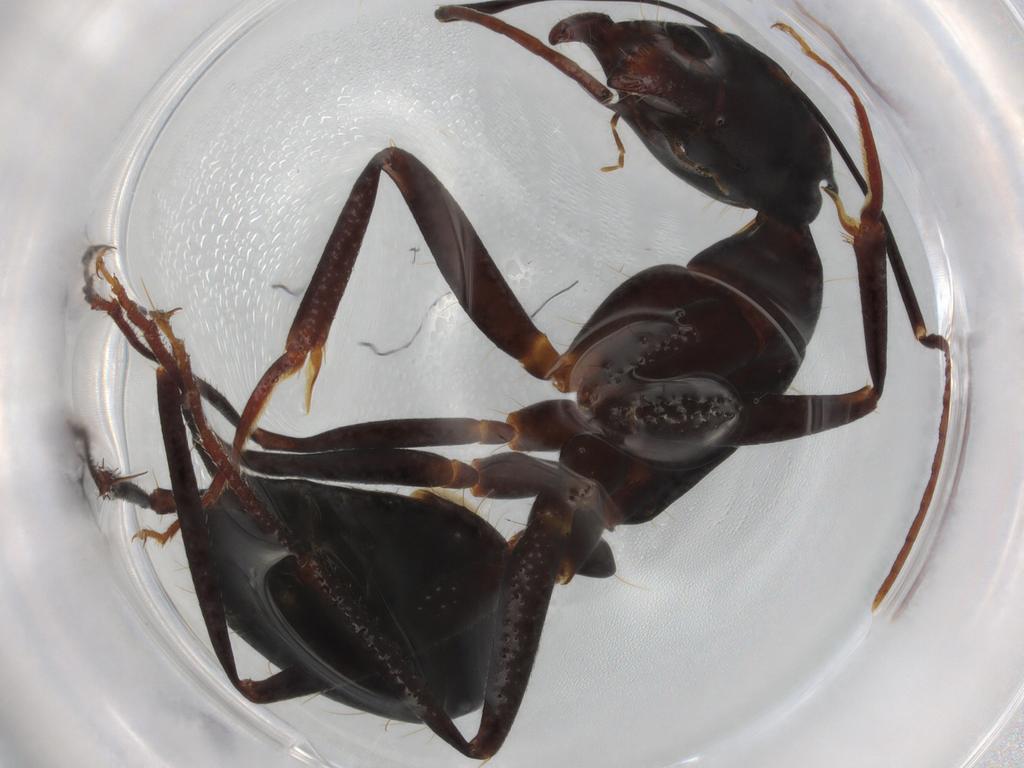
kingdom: Animalia
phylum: Arthropoda
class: Insecta
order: Hymenoptera
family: Formicidae
